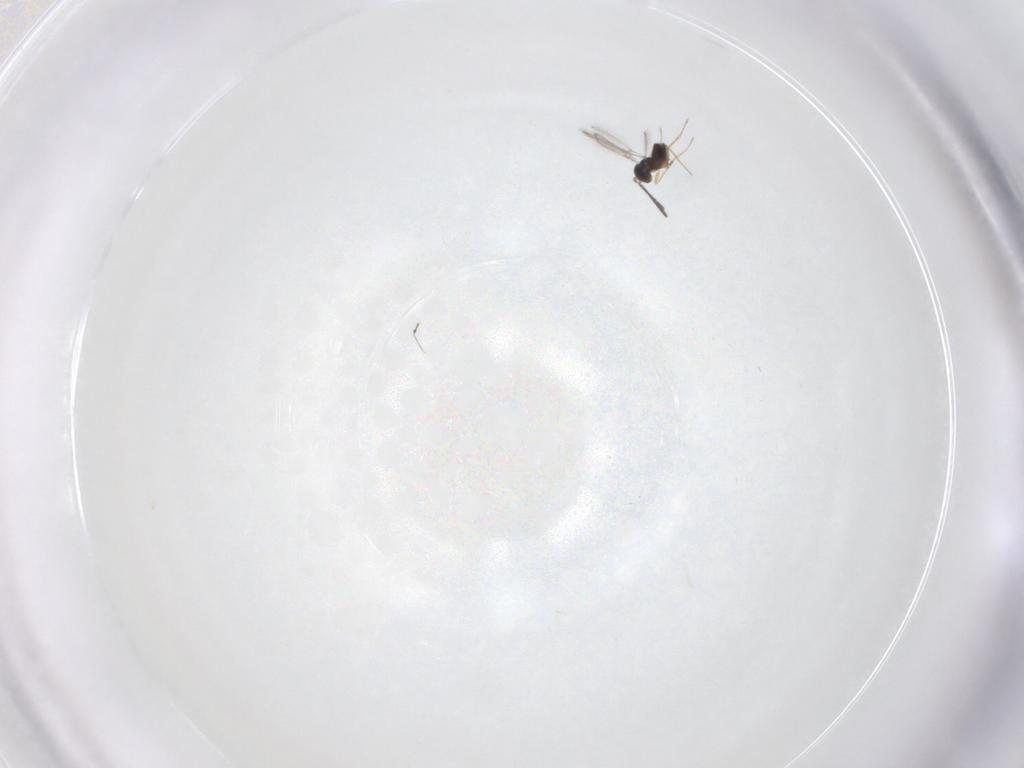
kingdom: Animalia
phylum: Arthropoda
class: Insecta
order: Hymenoptera
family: Mymaridae
